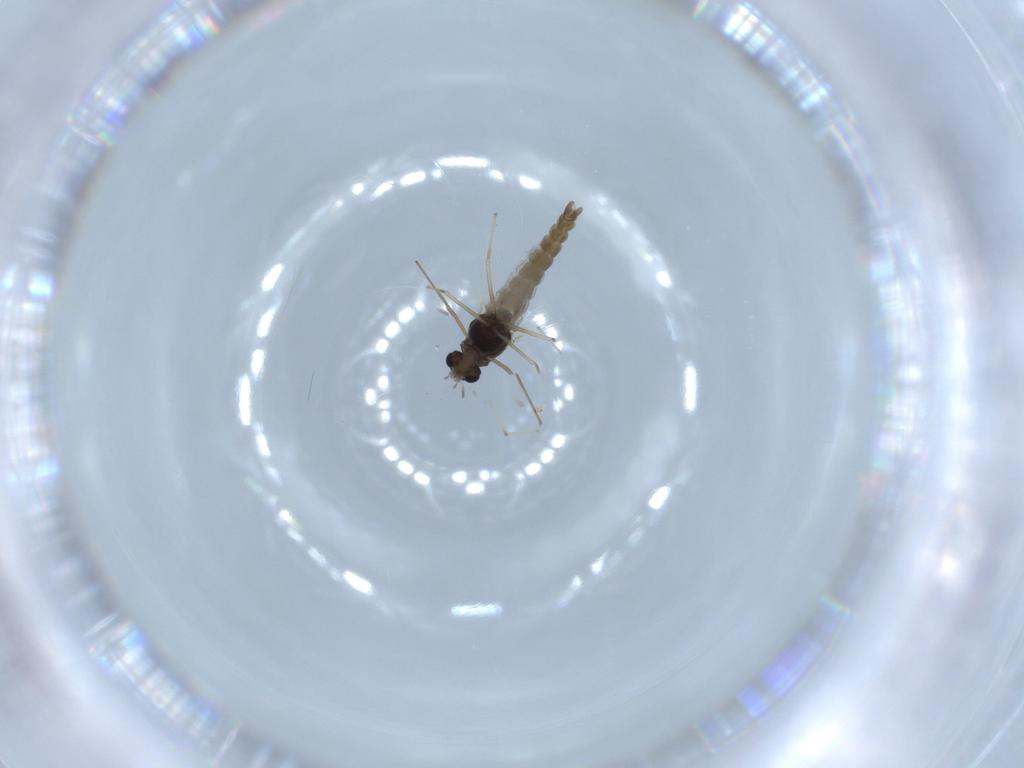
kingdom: Animalia
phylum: Arthropoda
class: Insecta
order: Diptera
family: Chironomidae
